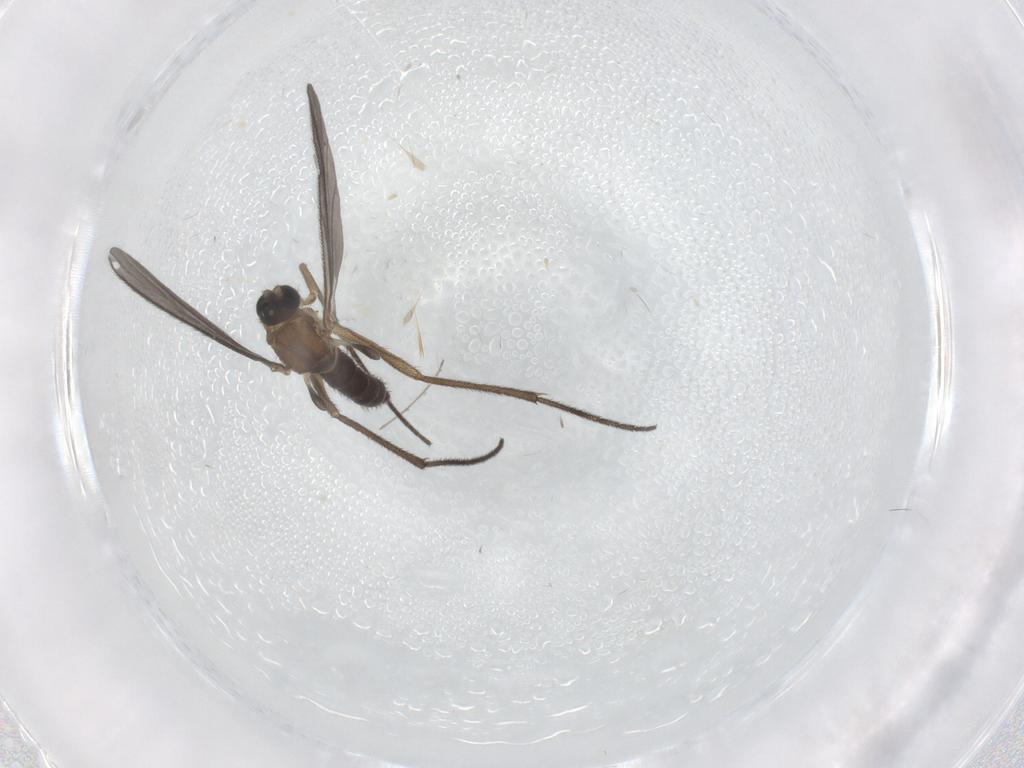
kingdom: Animalia
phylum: Arthropoda
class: Insecta
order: Diptera
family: Sciaridae
